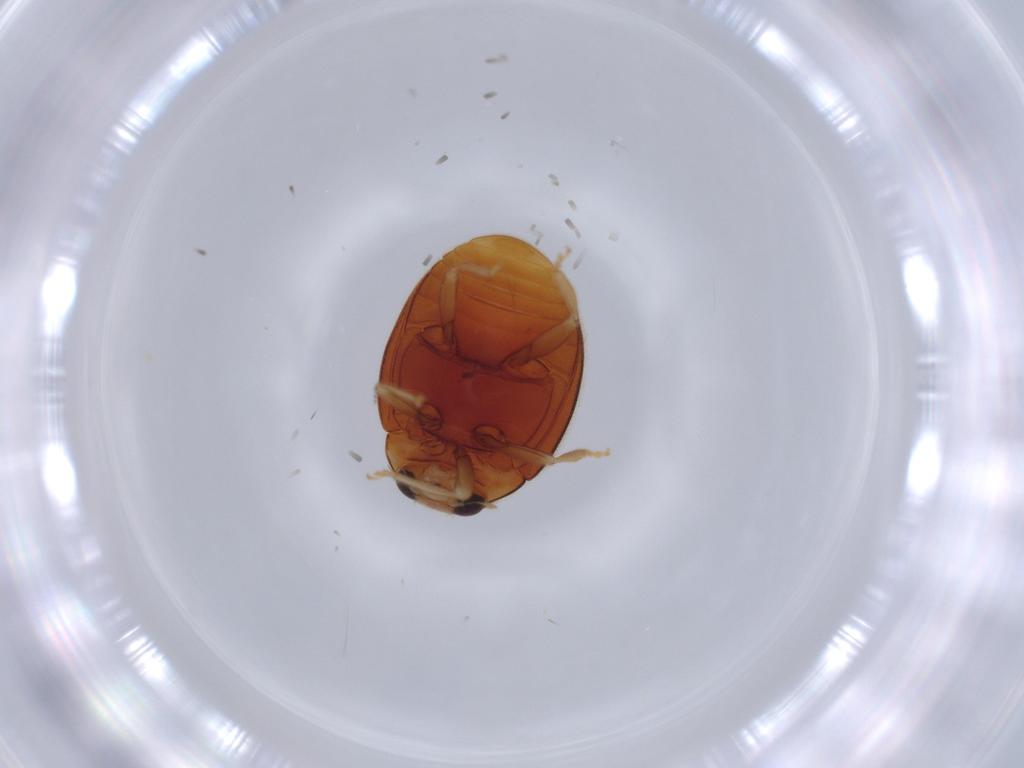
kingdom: Animalia
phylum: Arthropoda
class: Insecta
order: Coleoptera
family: Coccinellidae
